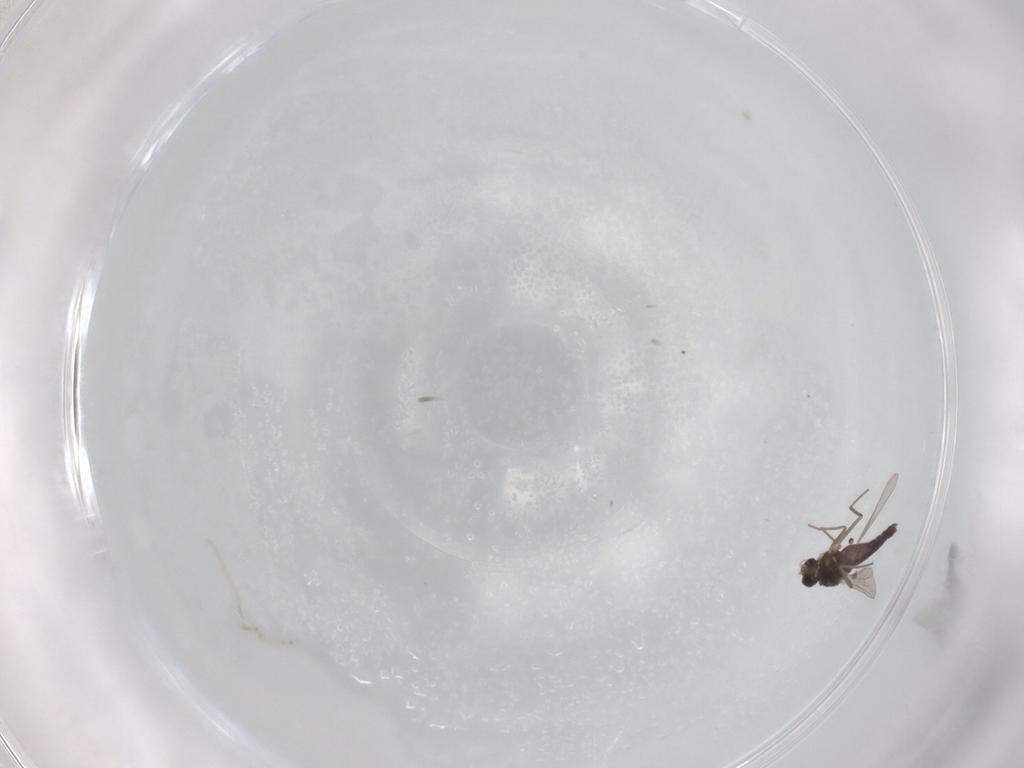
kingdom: Animalia
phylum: Arthropoda
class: Insecta
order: Diptera
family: Chironomidae
